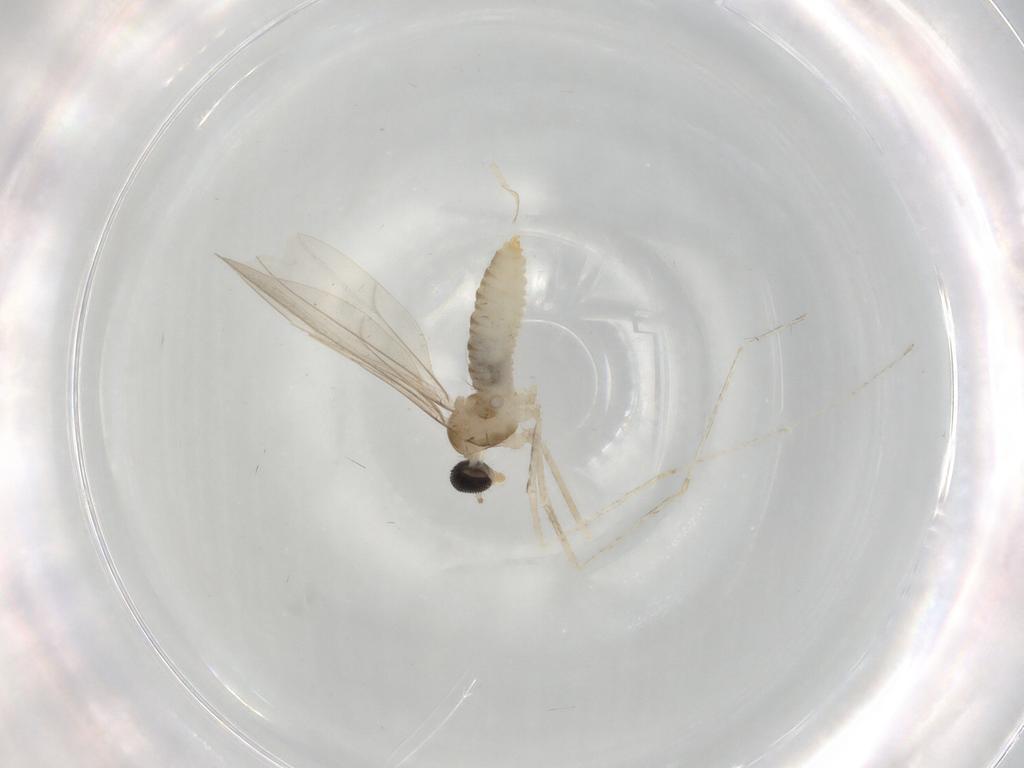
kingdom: Animalia
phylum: Arthropoda
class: Insecta
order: Diptera
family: Cecidomyiidae
